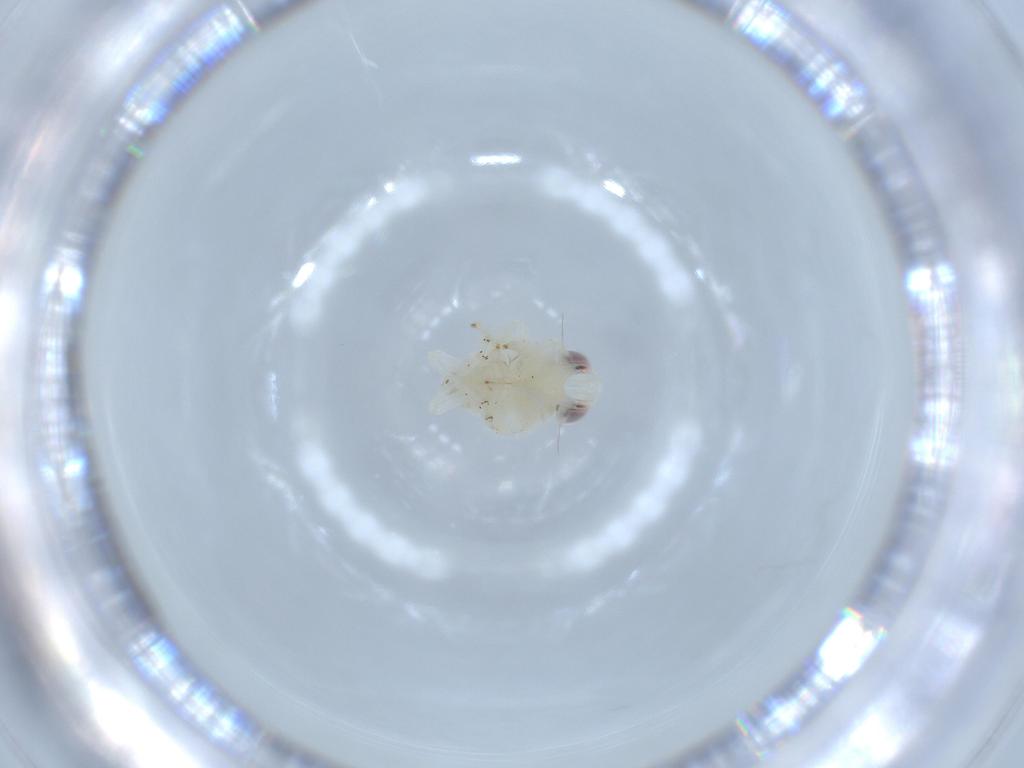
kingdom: Animalia
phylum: Arthropoda
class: Insecta
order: Hemiptera
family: Nogodinidae
